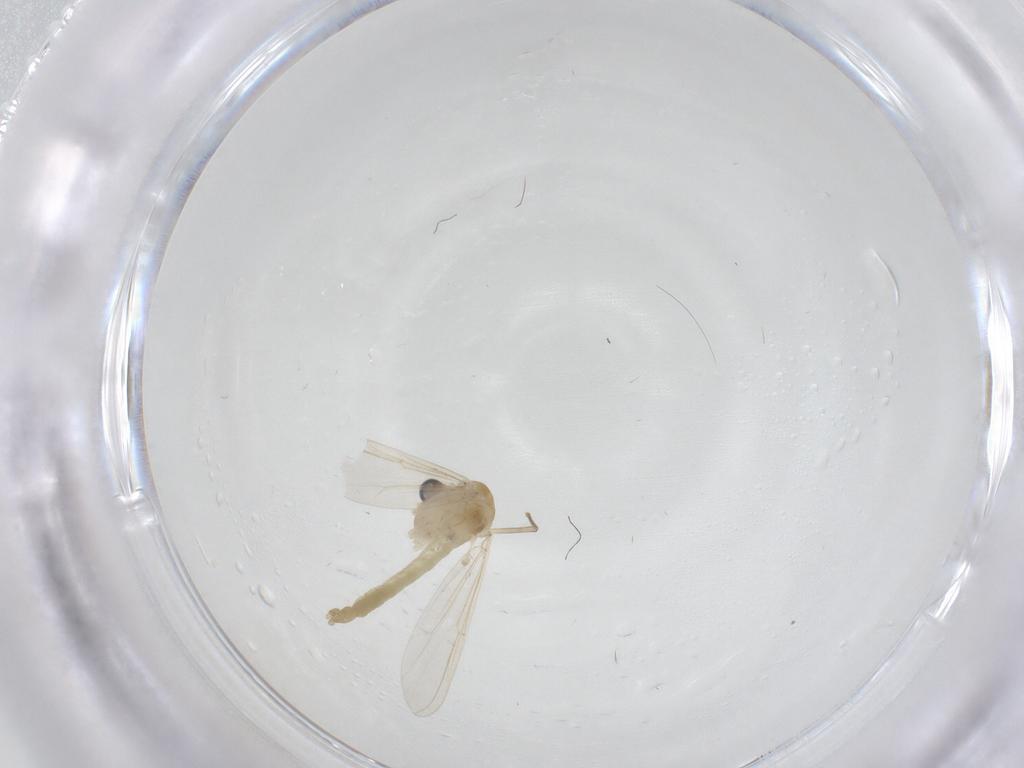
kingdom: Animalia
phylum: Arthropoda
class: Insecta
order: Diptera
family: Chironomidae
